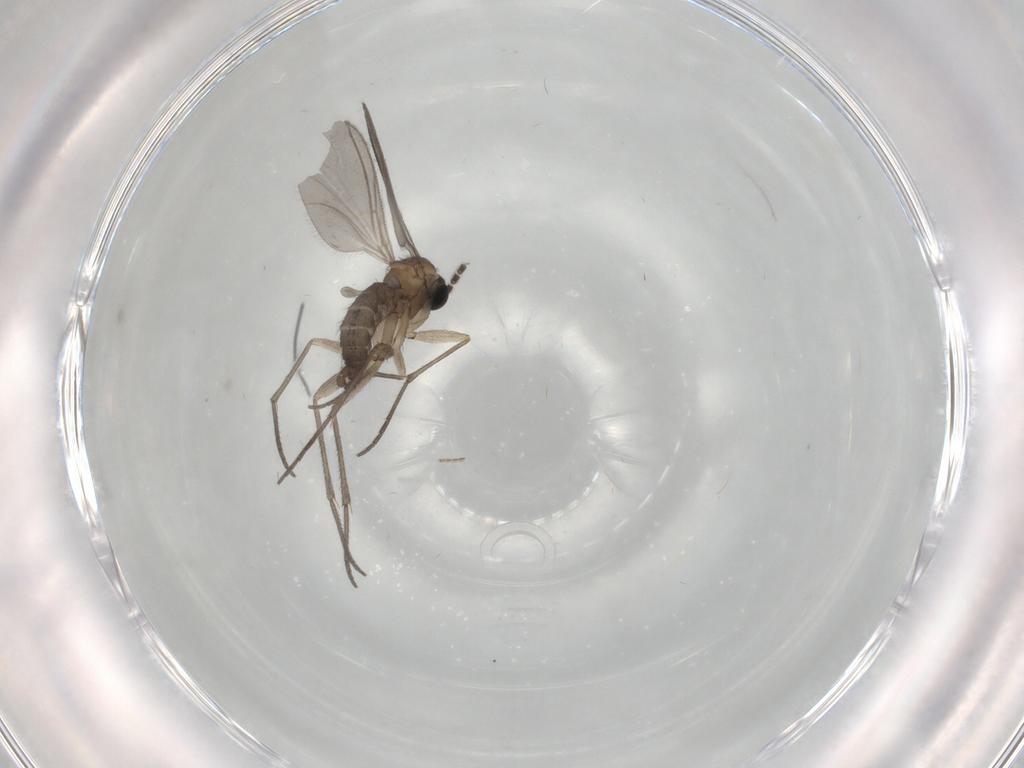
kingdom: Animalia
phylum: Arthropoda
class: Insecta
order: Diptera
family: Sciaridae
